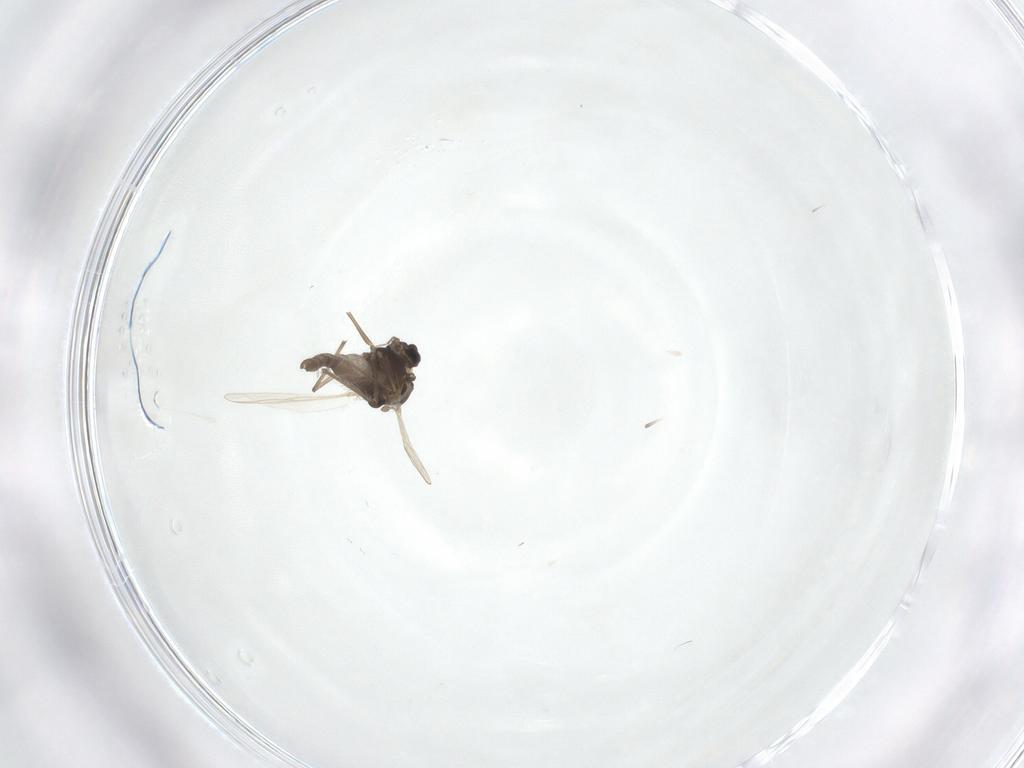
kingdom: Animalia
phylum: Arthropoda
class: Insecta
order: Diptera
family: Chironomidae
